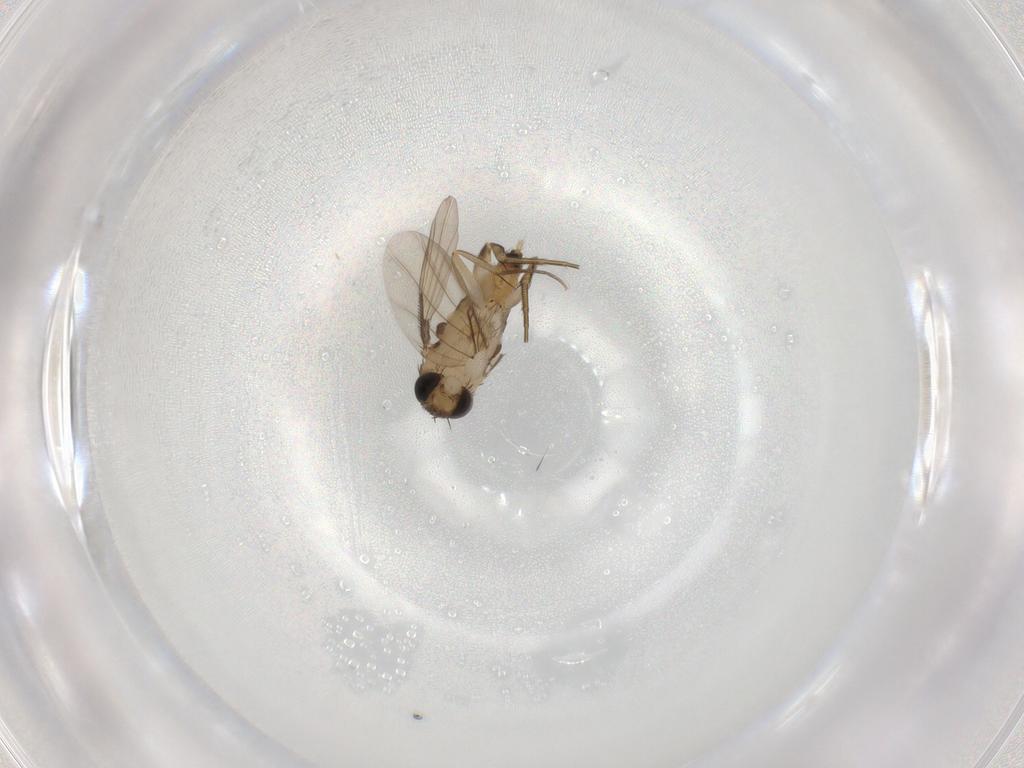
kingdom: Animalia
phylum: Arthropoda
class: Insecta
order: Diptera
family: Phoridae
